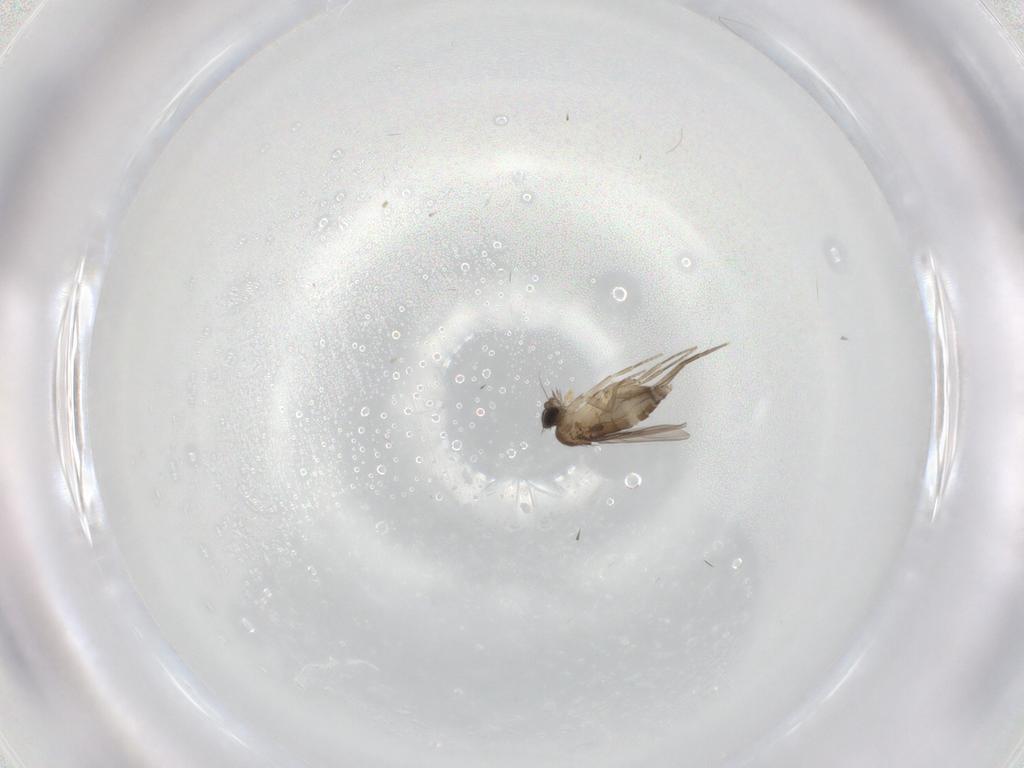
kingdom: Animalia
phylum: Arthropoda
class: Insecta
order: Diptera
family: Phoridae
